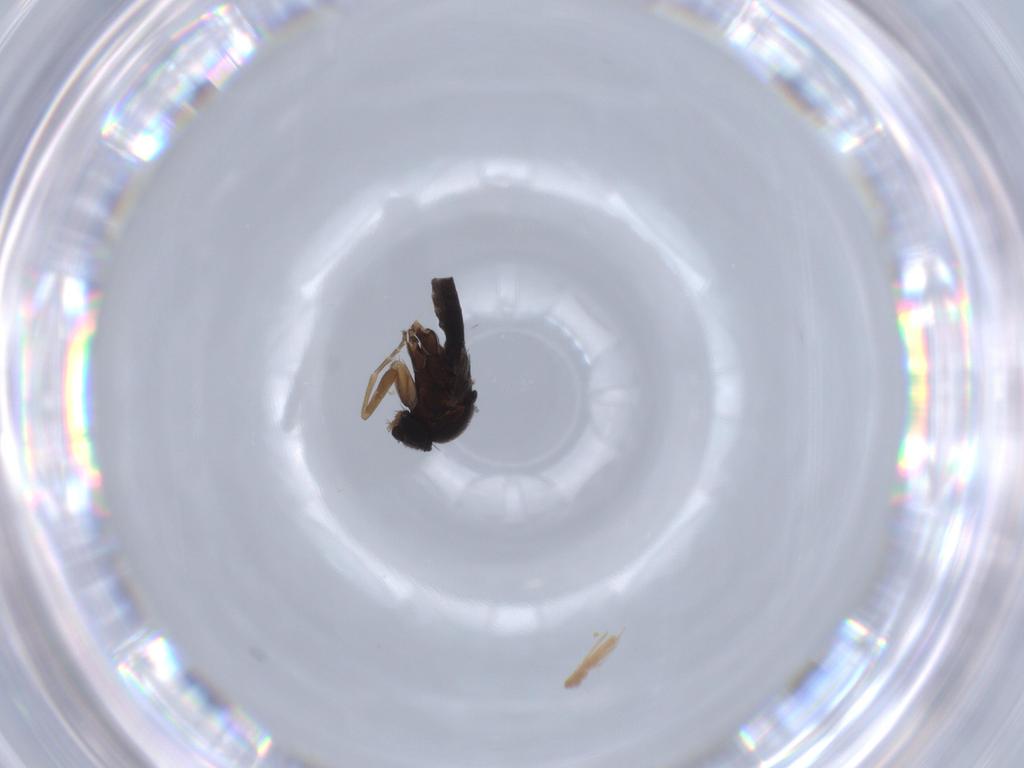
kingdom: Animalia
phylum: Arthropoda
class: Insecta
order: Diptera
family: Phoridae
